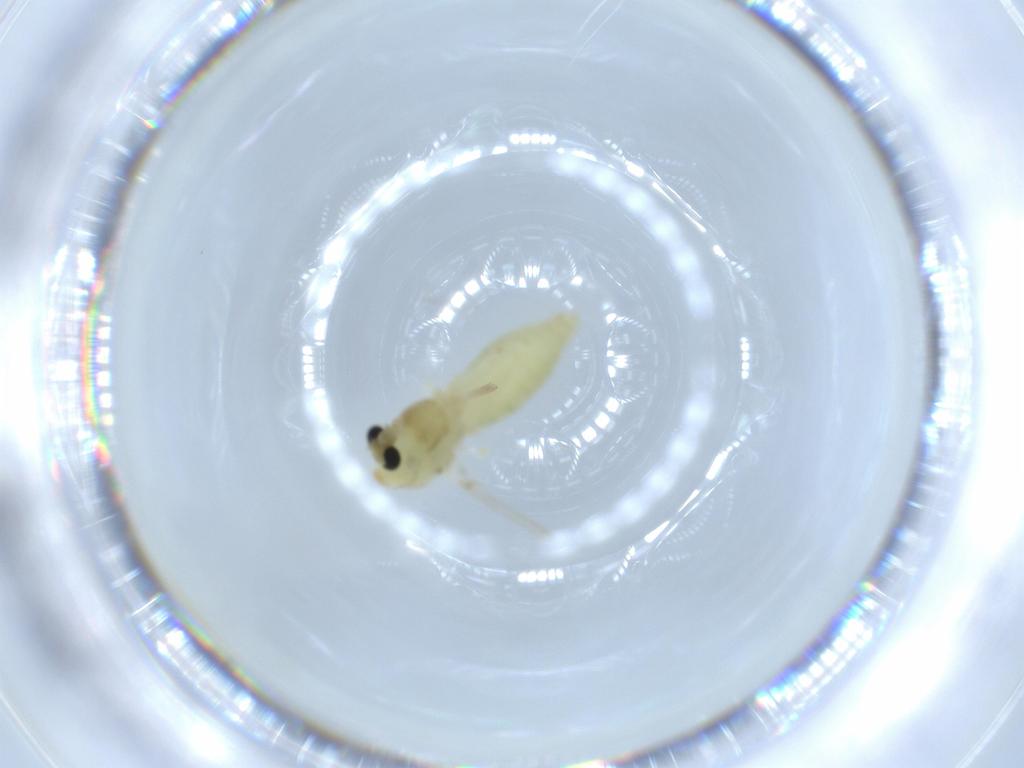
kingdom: Animalia
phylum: Arthropoda
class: Insecta
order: Diptera
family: Chironomidae
